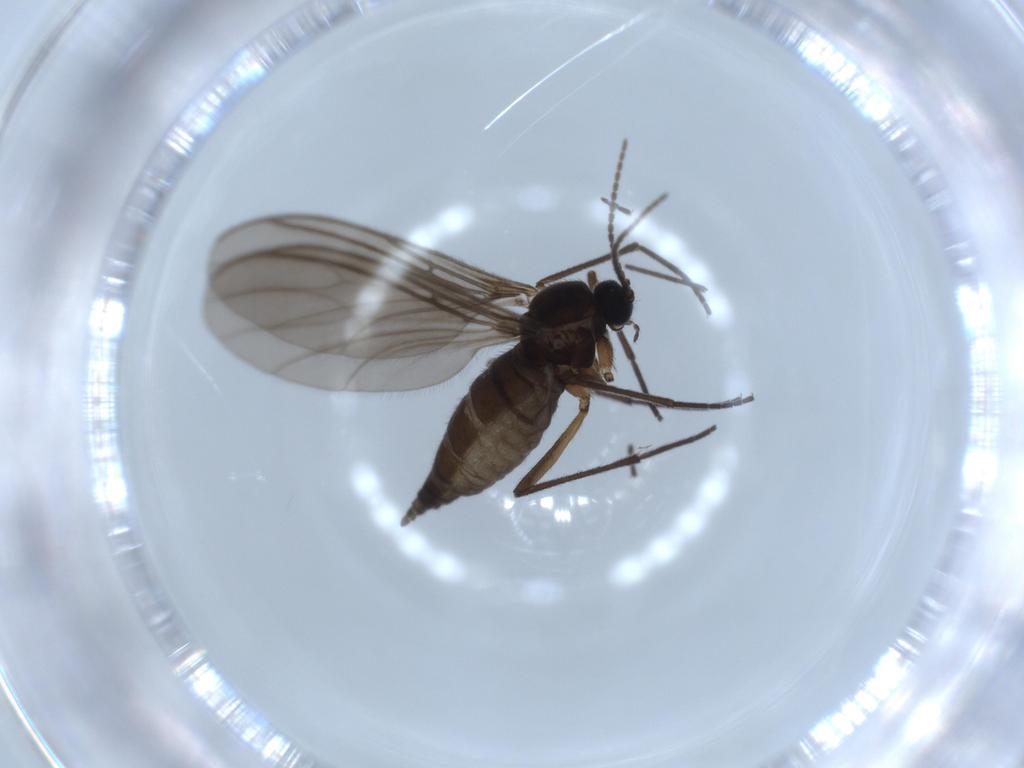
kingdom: Animalia
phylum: Arthropoda
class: Insecta
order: Diptera
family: Sciaridae
